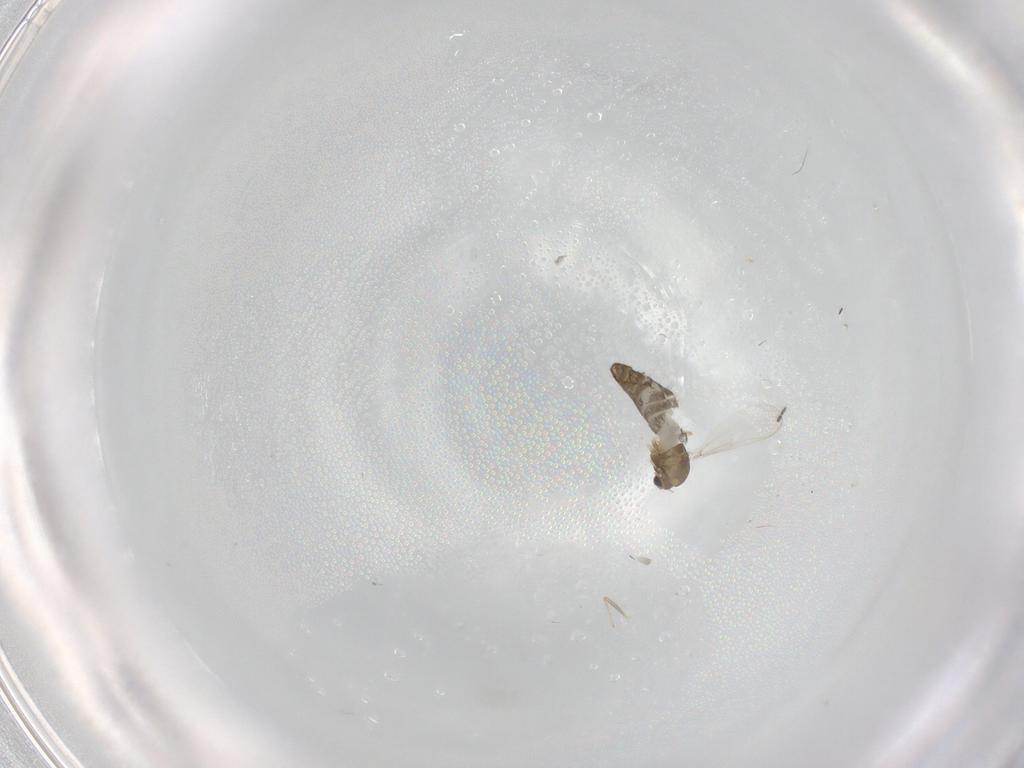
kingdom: Animalia
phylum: Arthropoda
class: Insecta
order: Diptera
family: Chironomidae
